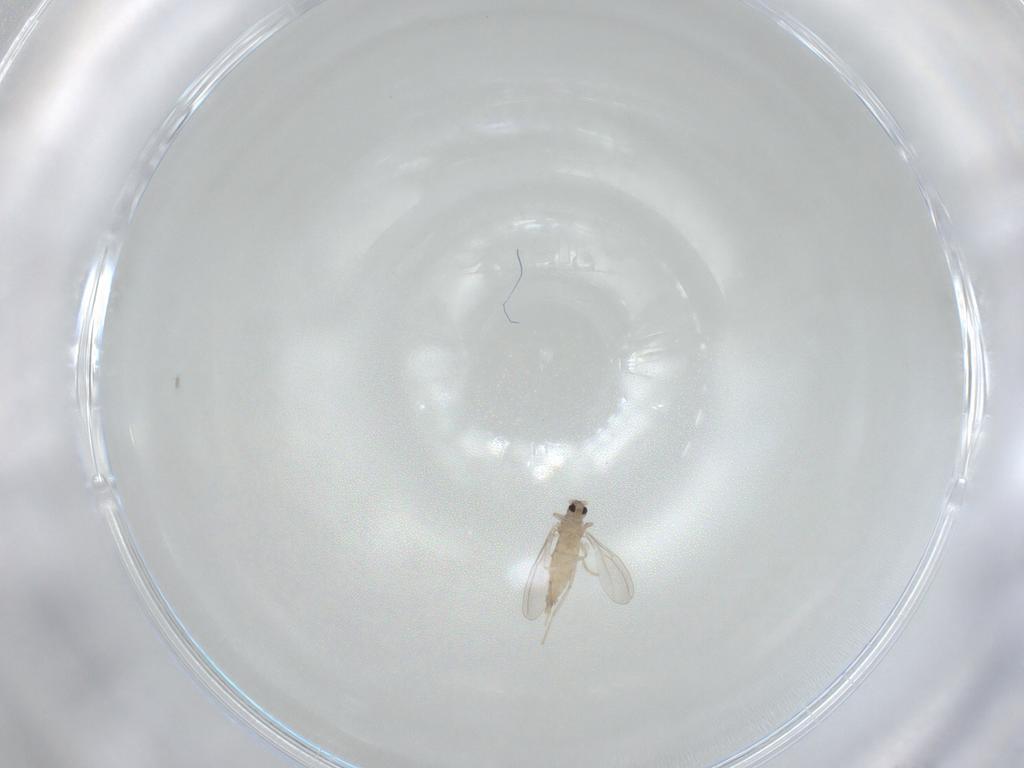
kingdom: Animalia
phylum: Arthropoda
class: Insecta
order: Diptera
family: Cecidomyiidae
